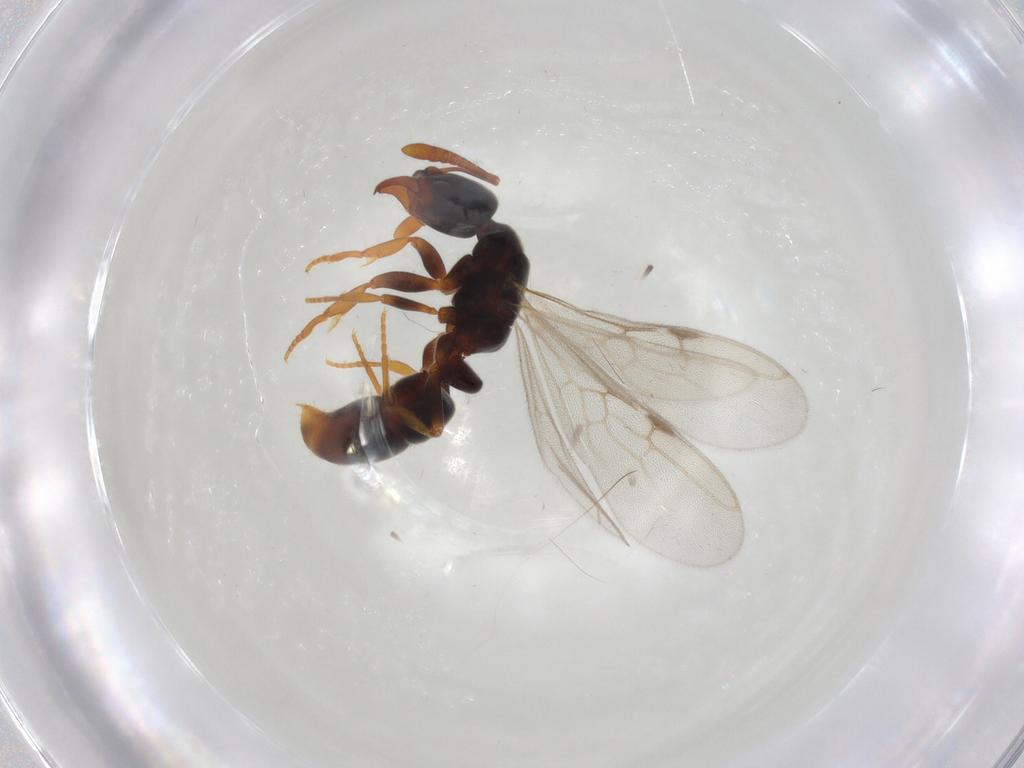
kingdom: Animalia
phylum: Arthropoda
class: Insecta
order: Hymenoptera
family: Formicidae
